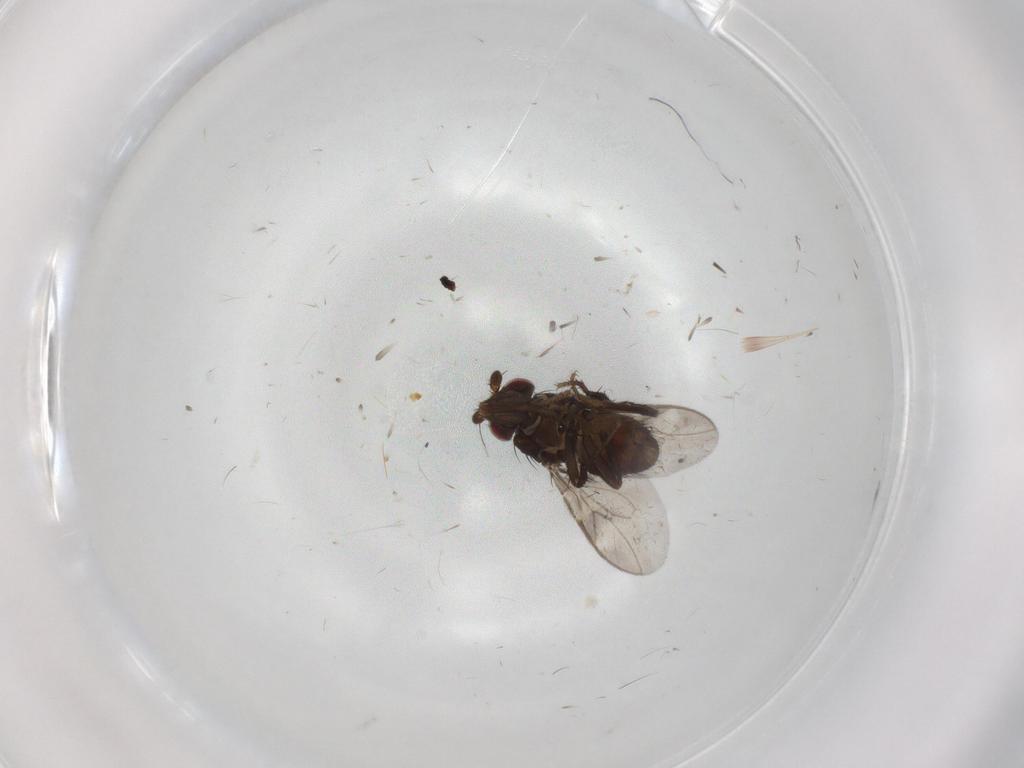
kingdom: Animalia
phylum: Arthropoda
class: Insecta
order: Diptera
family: Sphaeroceridae
